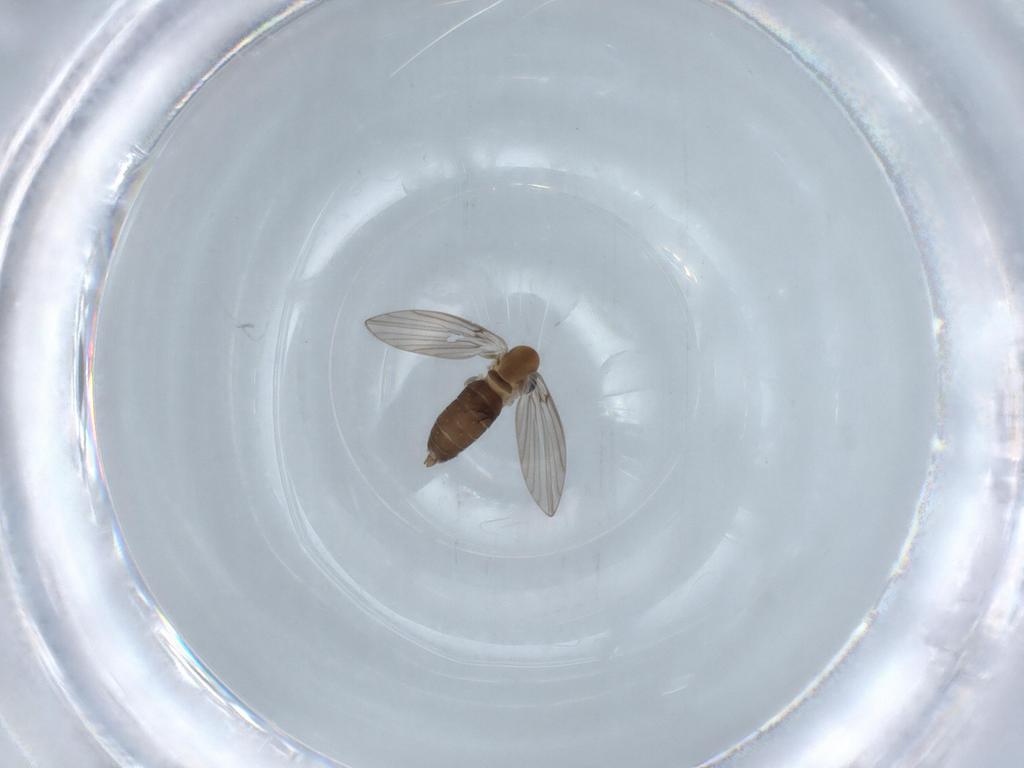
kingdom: Animalia
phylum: Arthropoda
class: Insecta
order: Diptera
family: Psychodidae
